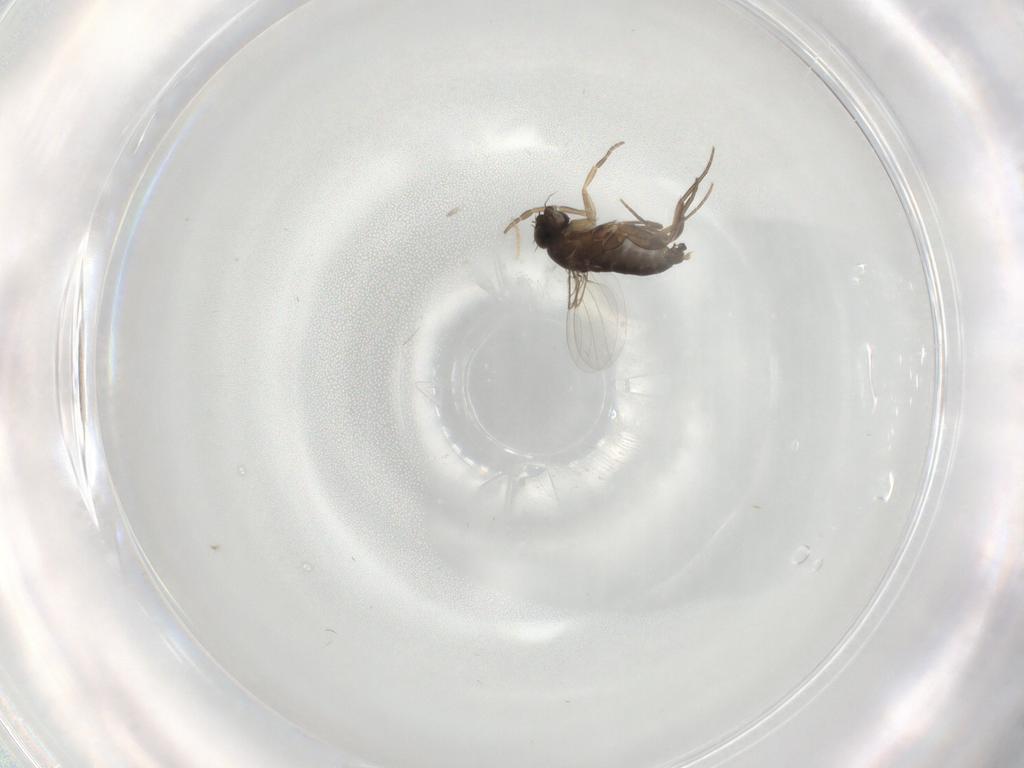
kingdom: Animalia
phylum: Arthropoda
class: Insecta
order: Diptera
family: Phoridae
